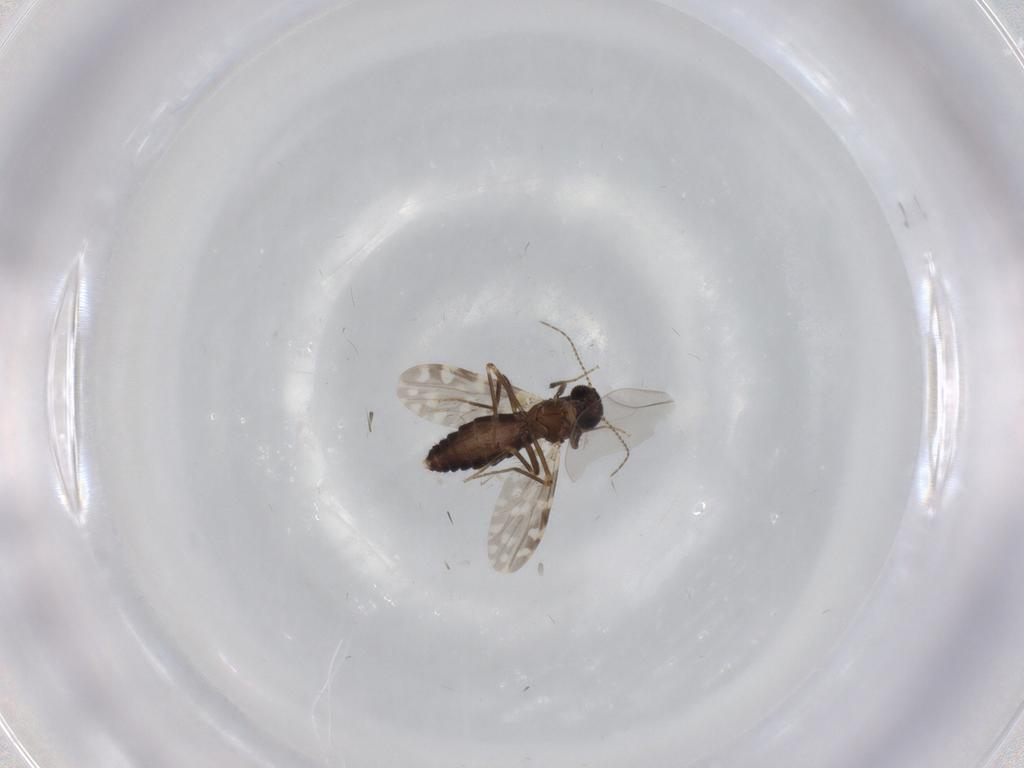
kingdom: Animalia
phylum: Arthropoda
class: Insecta
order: Diptera
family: Ceratopogonidae
